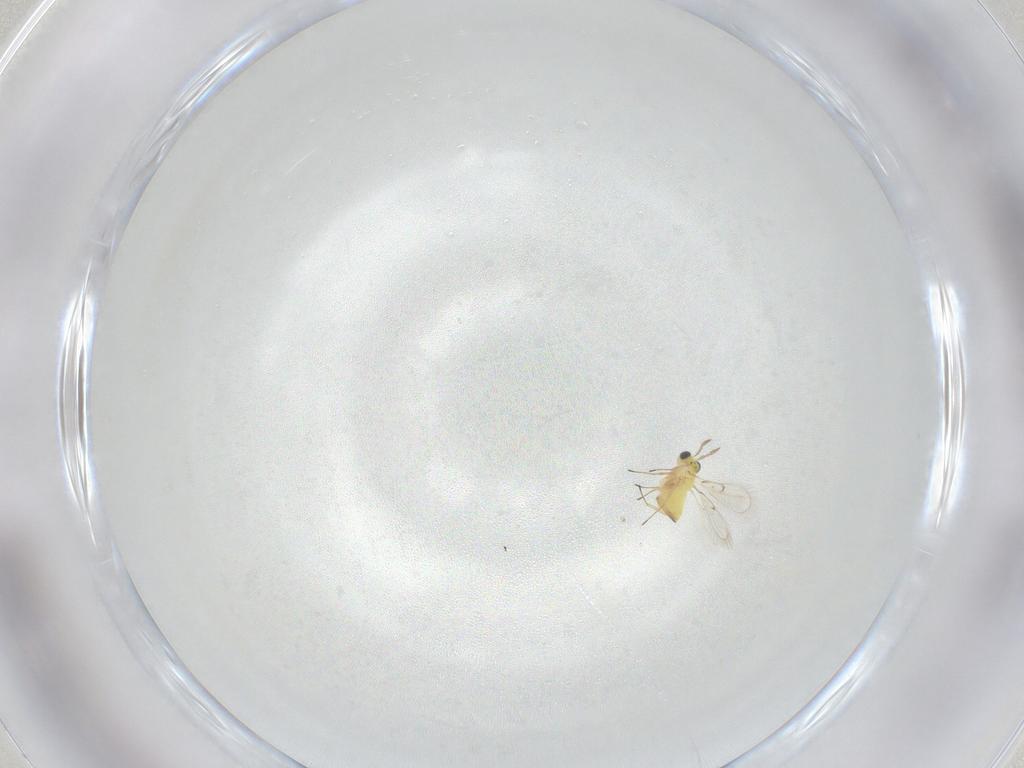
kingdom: Animalia
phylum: Arthropoda
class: Insecta
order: Hymenoptera
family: Trichogrammatidae
